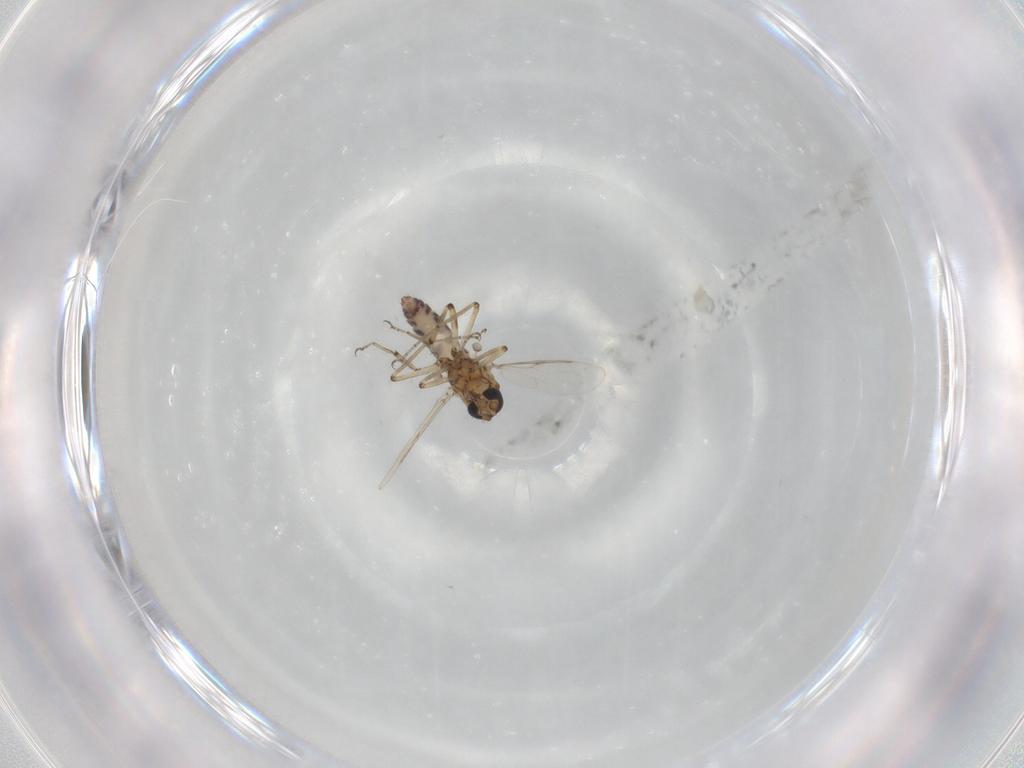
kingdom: Animalia
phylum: Arthropoda
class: Insecta
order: Diptera
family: Ceratopogonidae
